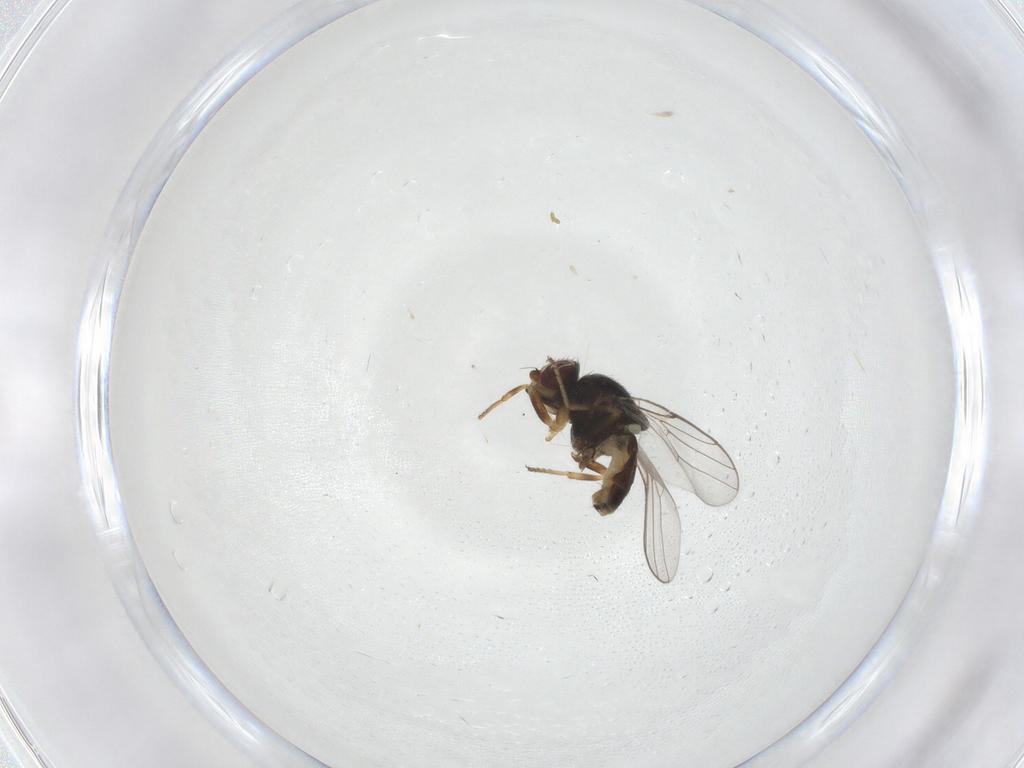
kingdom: Animalia
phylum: Arthropoda
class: Insecta
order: Diptera
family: Chloropidae
